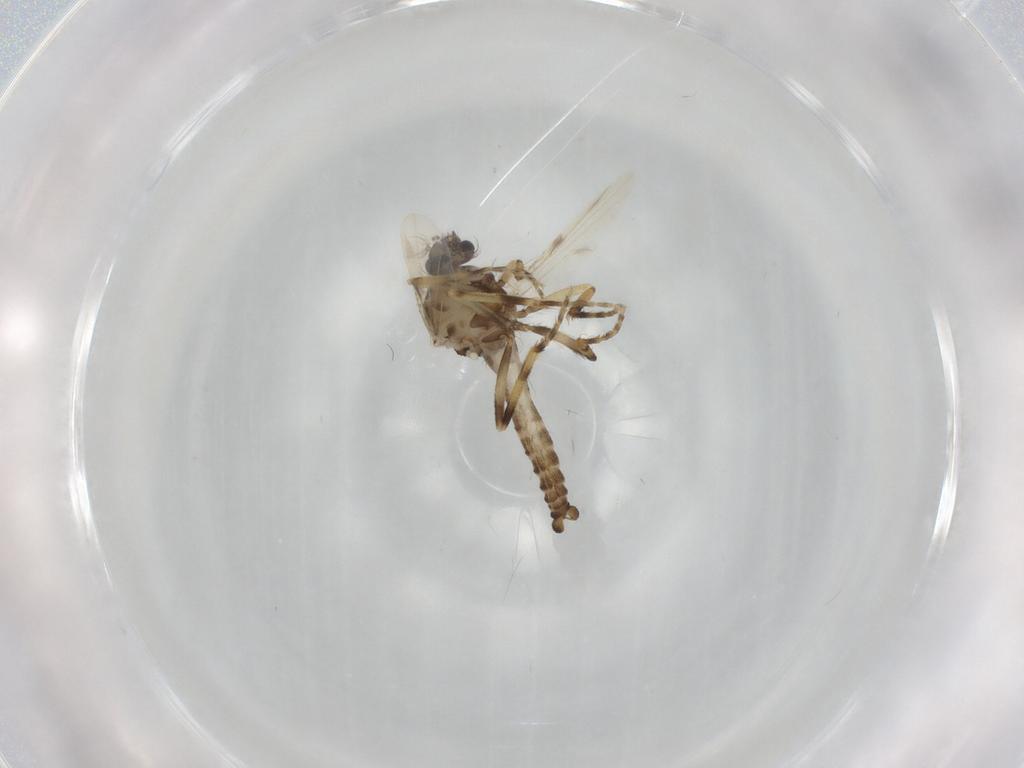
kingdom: Animalia
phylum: Arthropoda
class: Insecta
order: Diptera
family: Ceratopogonidae
